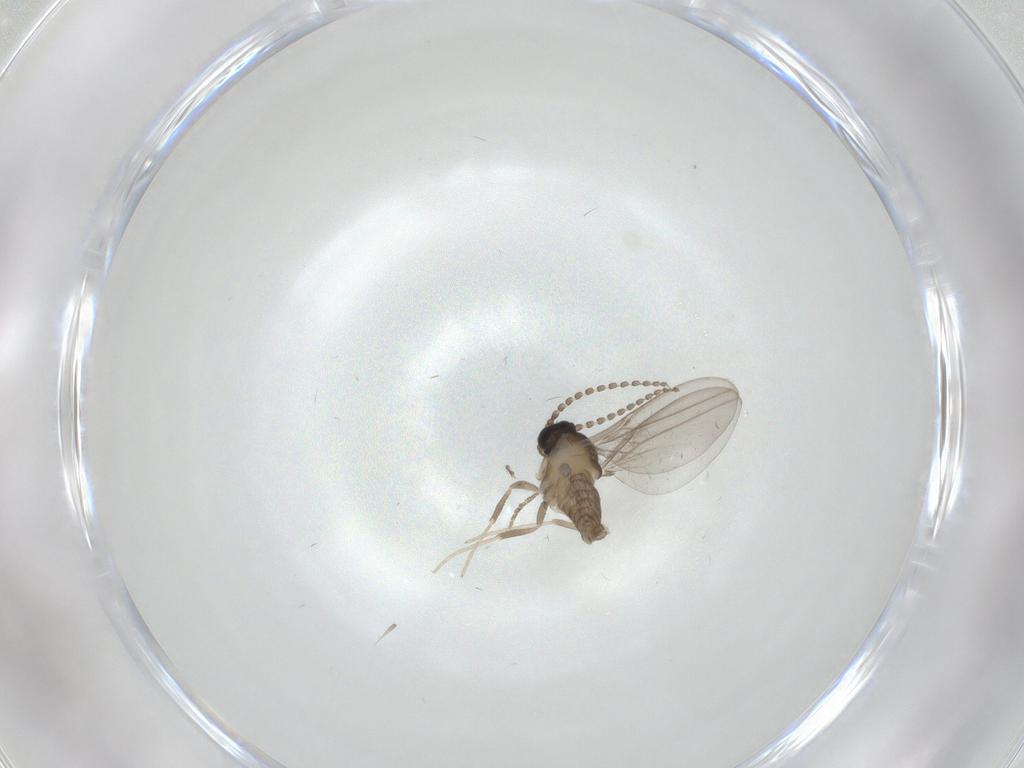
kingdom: Animalia
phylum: Arthropoda
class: Insecta
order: Diptera
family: Cecidomyiidae
